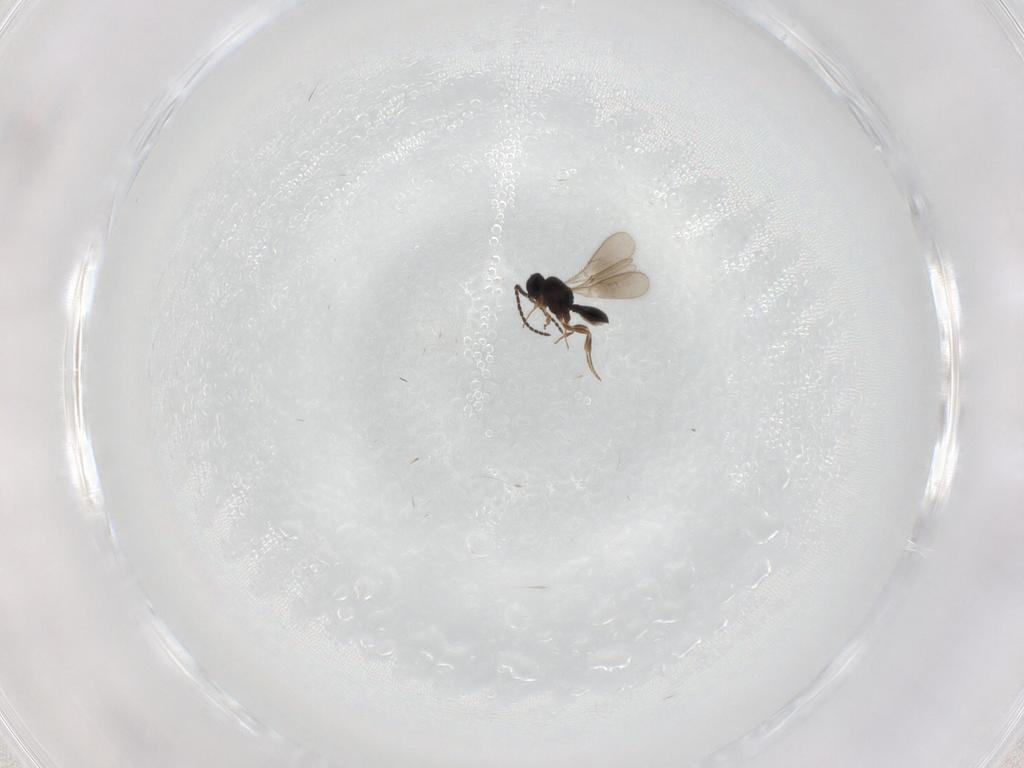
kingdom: Animalia
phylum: Arthropoda
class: Insecta
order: Hymenoptera
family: Scelionidae
